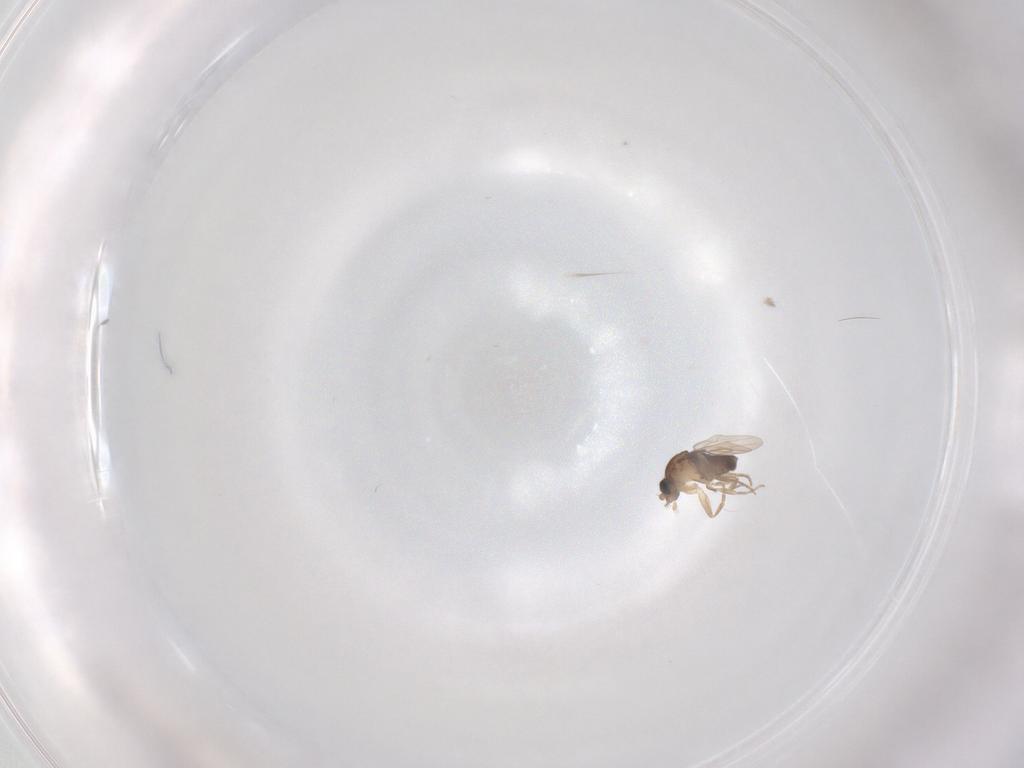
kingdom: Animalia
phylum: Arthropoda
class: Insecta
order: Diptera
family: Phoridae
